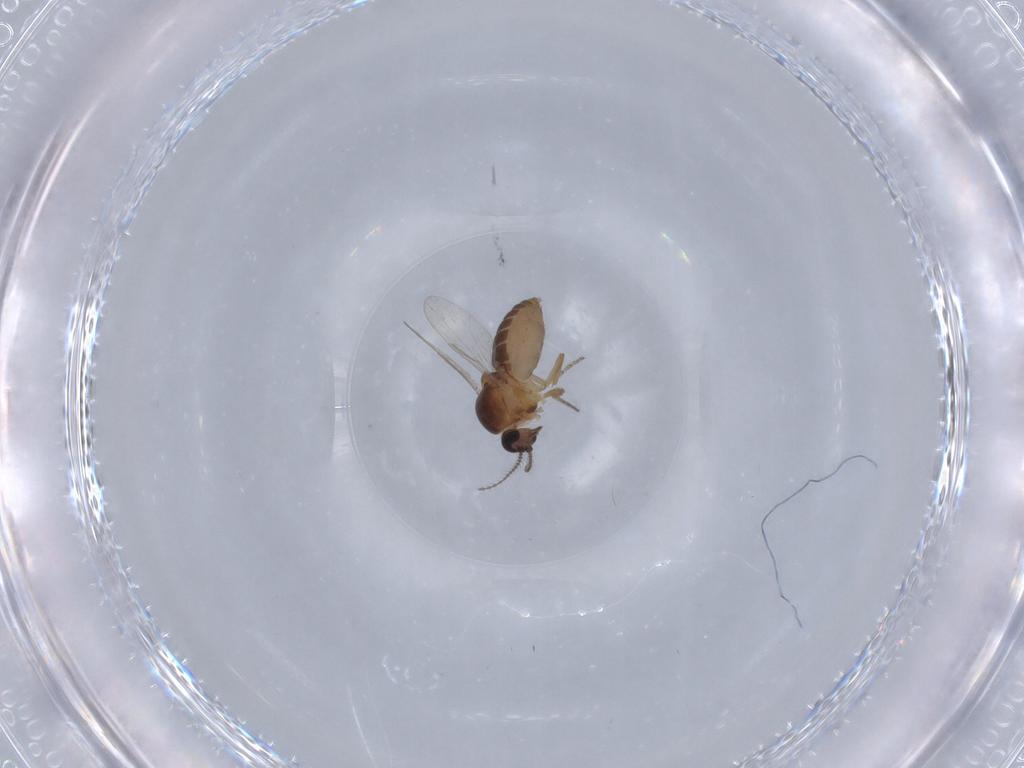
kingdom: Animalia
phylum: Arthropoda
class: Insecta
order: Diptera
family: Ceratopogonidae
